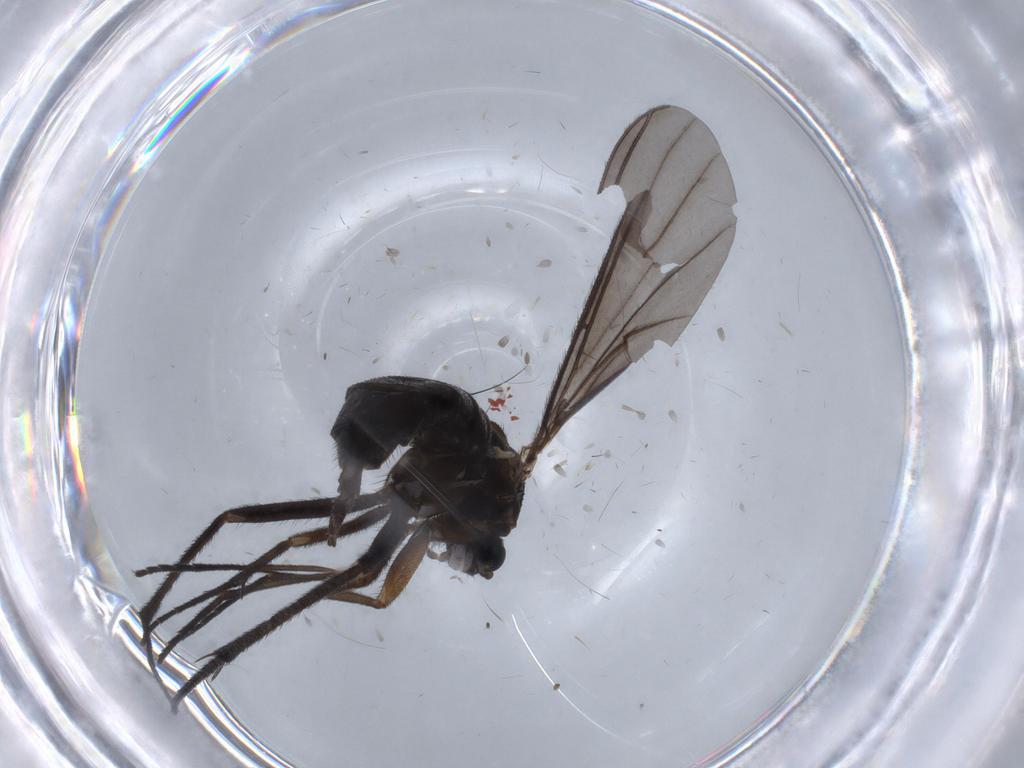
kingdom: Animalia
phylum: Arthropoda
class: Insecta
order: Diptera
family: Sciaridae
